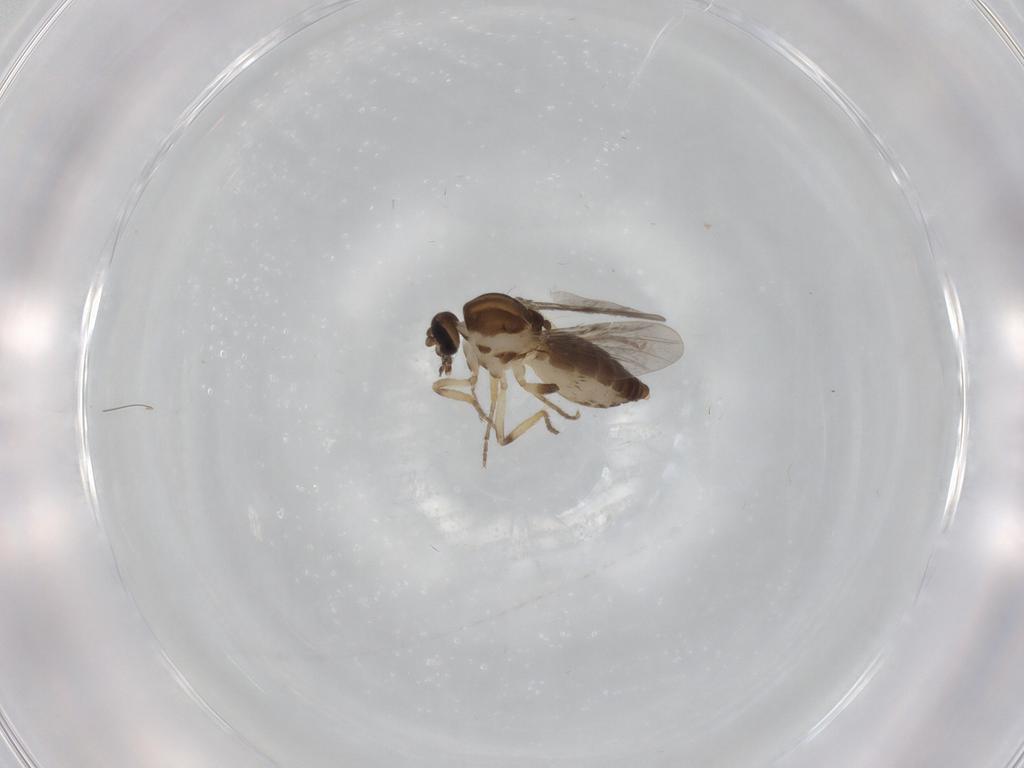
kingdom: Animalia
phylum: Arthropoda
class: Insecta
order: Diptera
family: Ceratopogonidae
